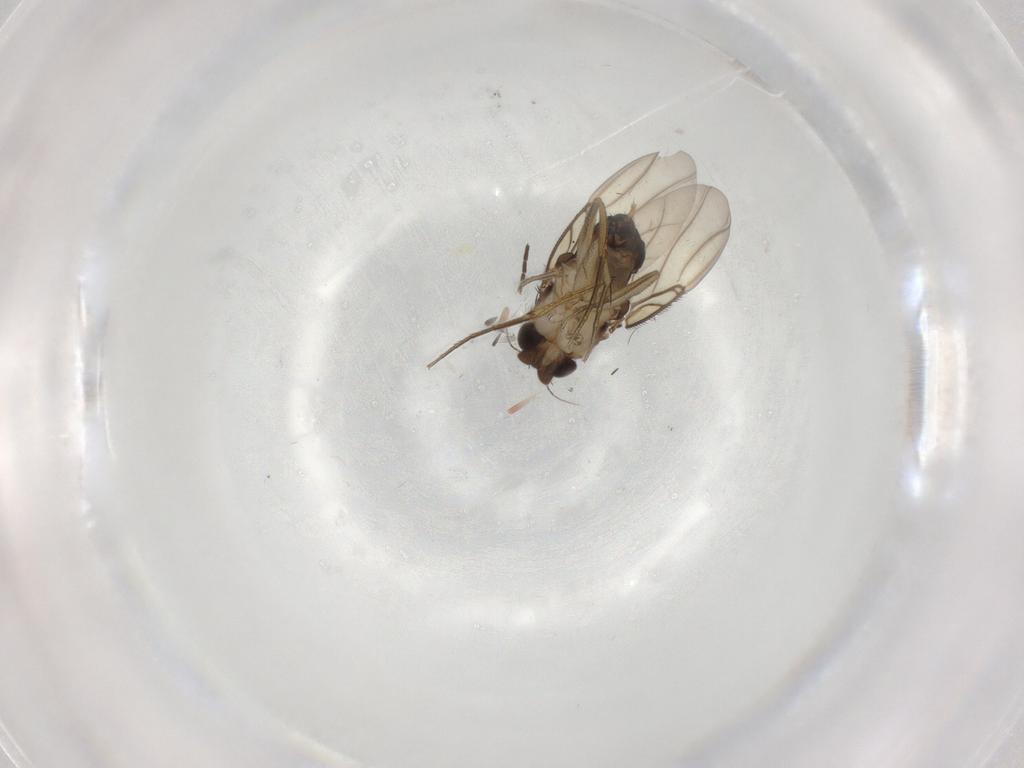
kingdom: Animalia
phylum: Arthropoda
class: Insecta
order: Diptera
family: Phoridae
